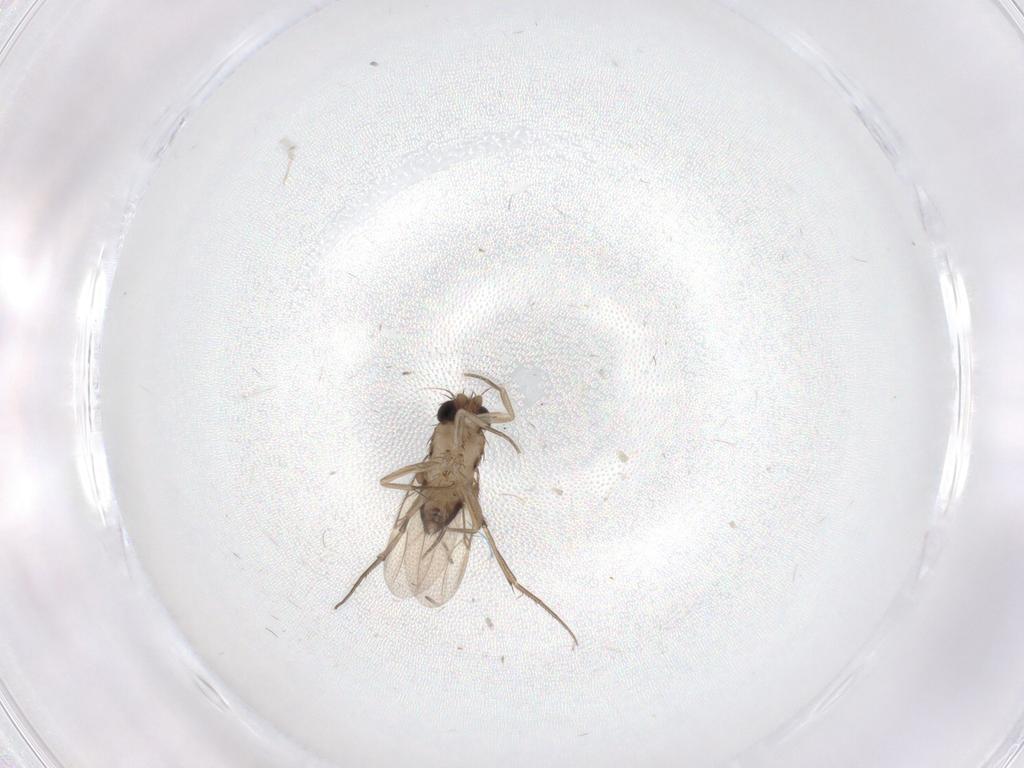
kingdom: Animalia
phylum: Arthropoda
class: Insecta
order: Diptera
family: Phoridae
